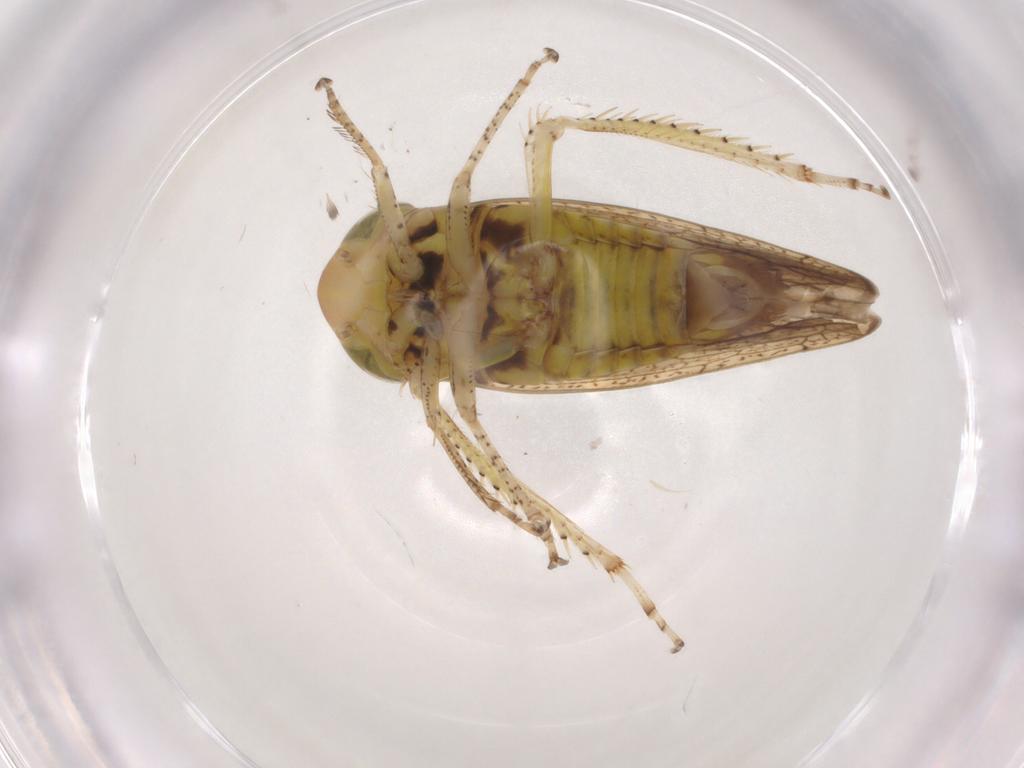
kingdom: Animalia
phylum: Arthropoda
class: Insecta
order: Hemiptera
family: Cicadellidae
